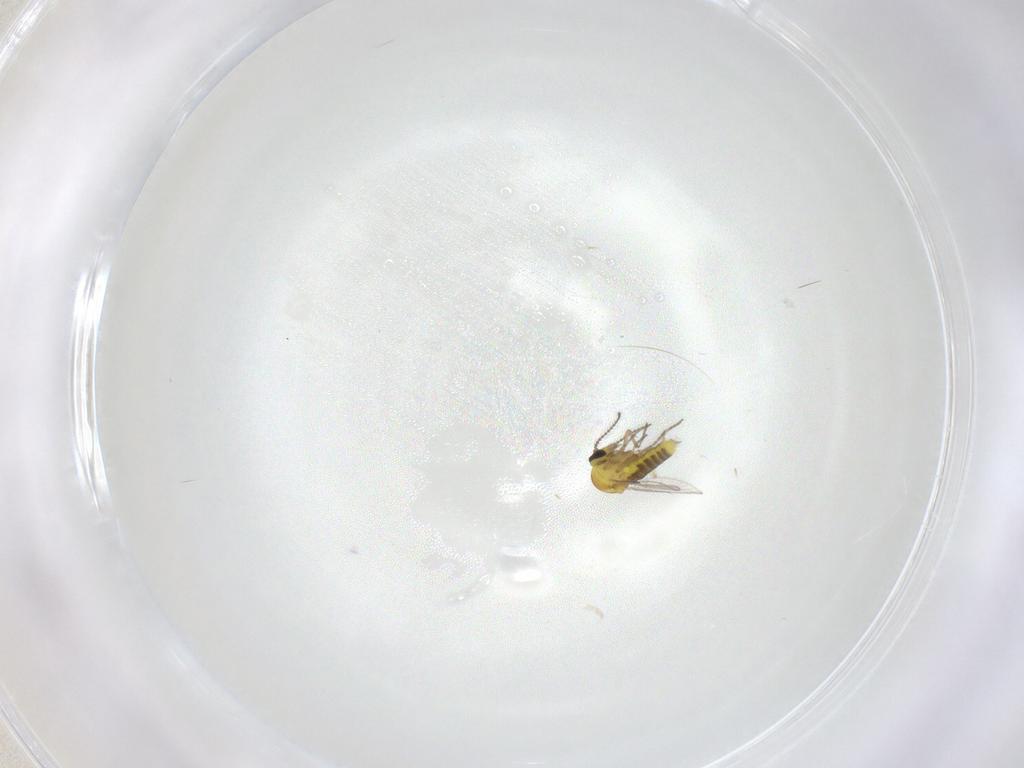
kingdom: Animalia
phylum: Arthropoda
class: Insecta
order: Diptera
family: Ceratopogonidae
